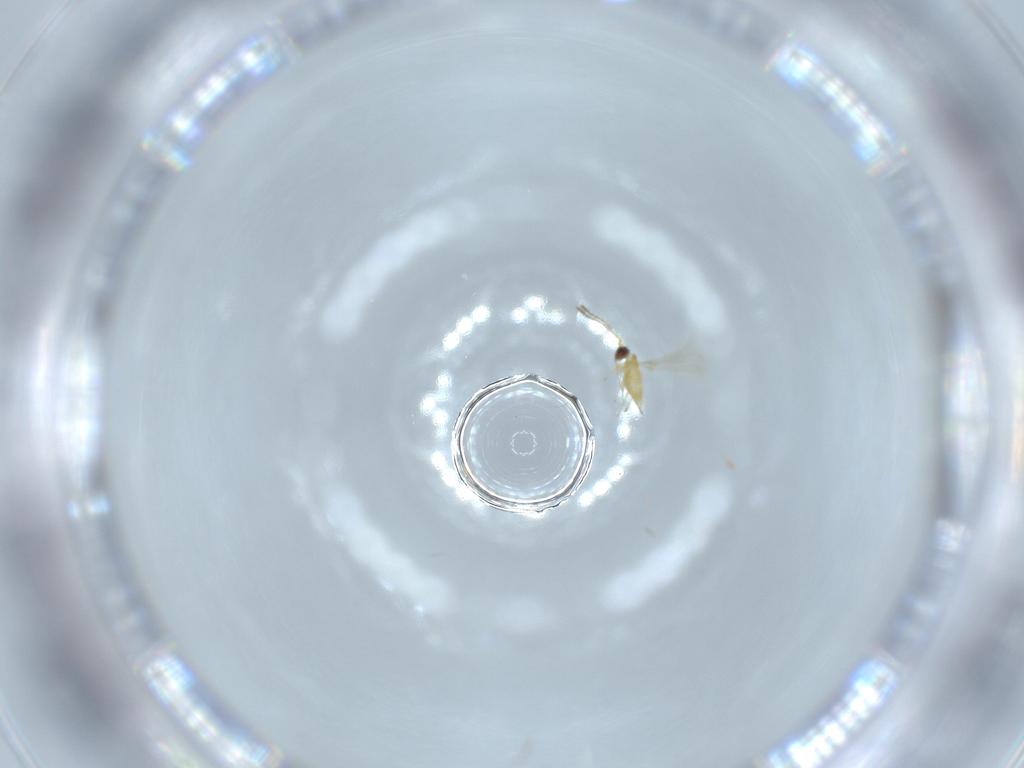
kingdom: Animalia
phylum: Arthropoda
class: Insecta
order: Hymenoptera
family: Mymaridae
